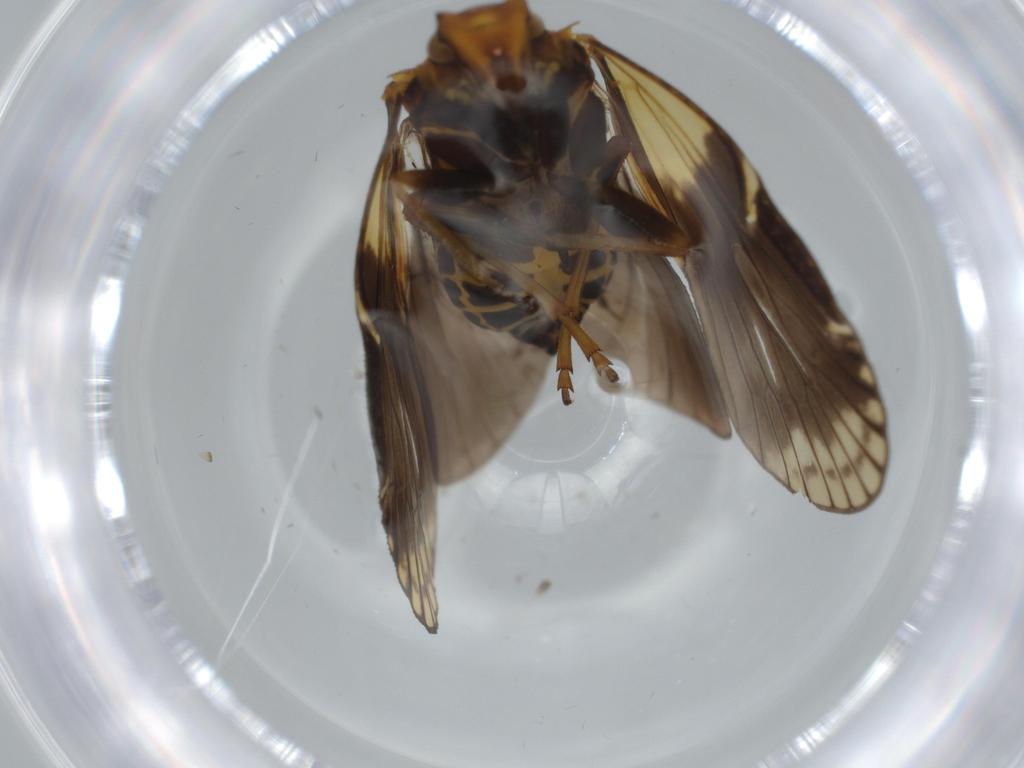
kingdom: Animalia
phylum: Arthropoda
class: Insecta
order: Hemiptera
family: Cixiidae
